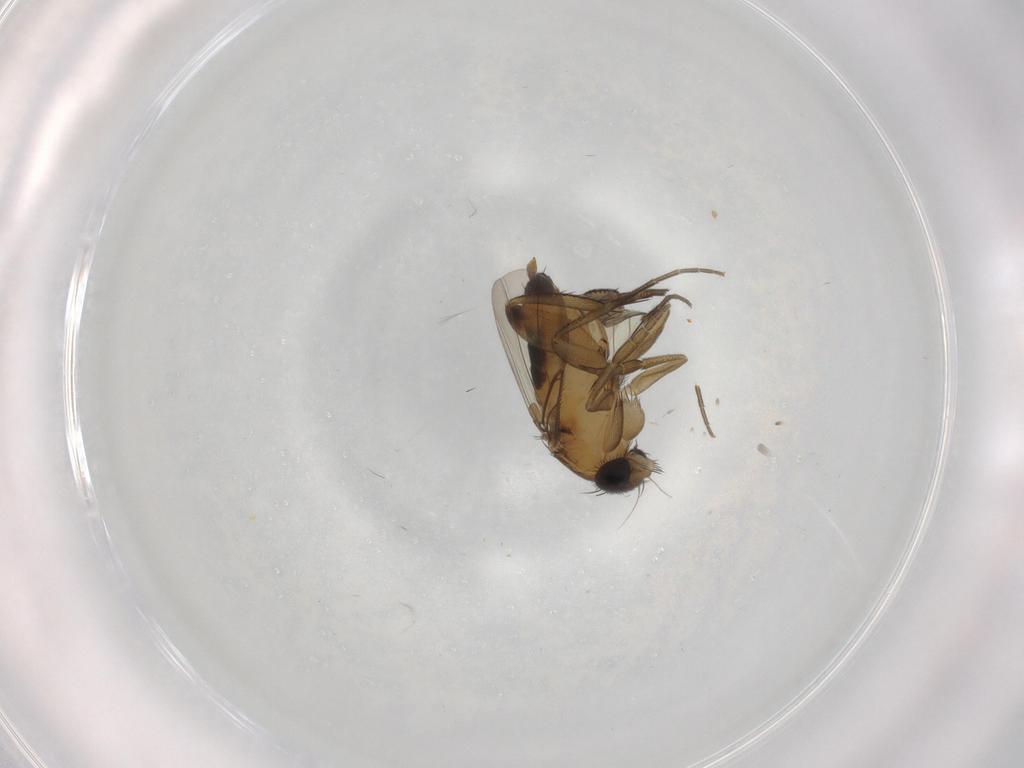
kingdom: Animalia
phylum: Arthropoda
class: Insecta
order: Diptera
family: Phoridae
